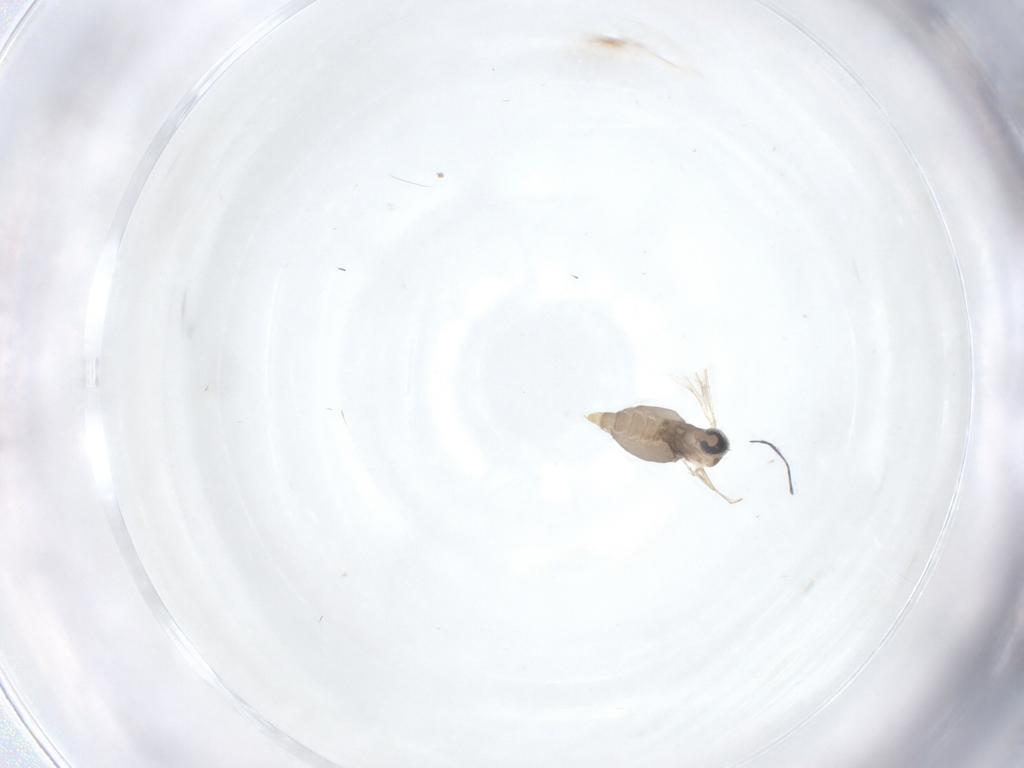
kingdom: Animalia
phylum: Arthropoda
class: Insecta
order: Diptera
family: Cecidomyiidae
